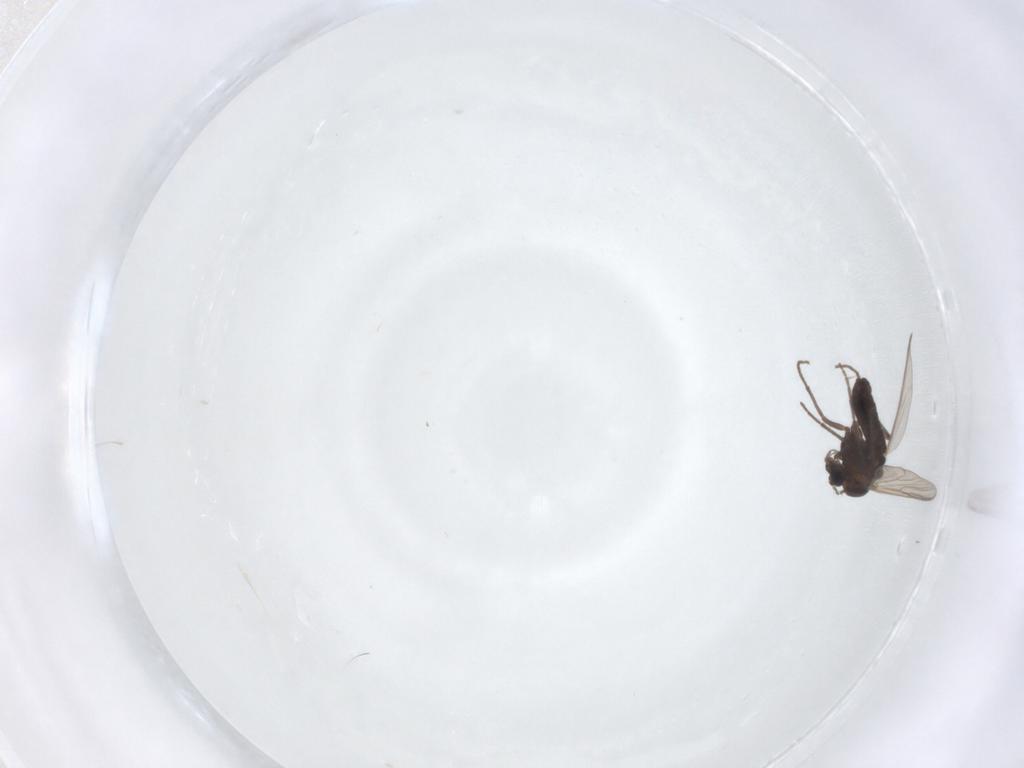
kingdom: Animalia
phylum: Arthropoda
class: Insecta
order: Diptera
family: Chironomidae
